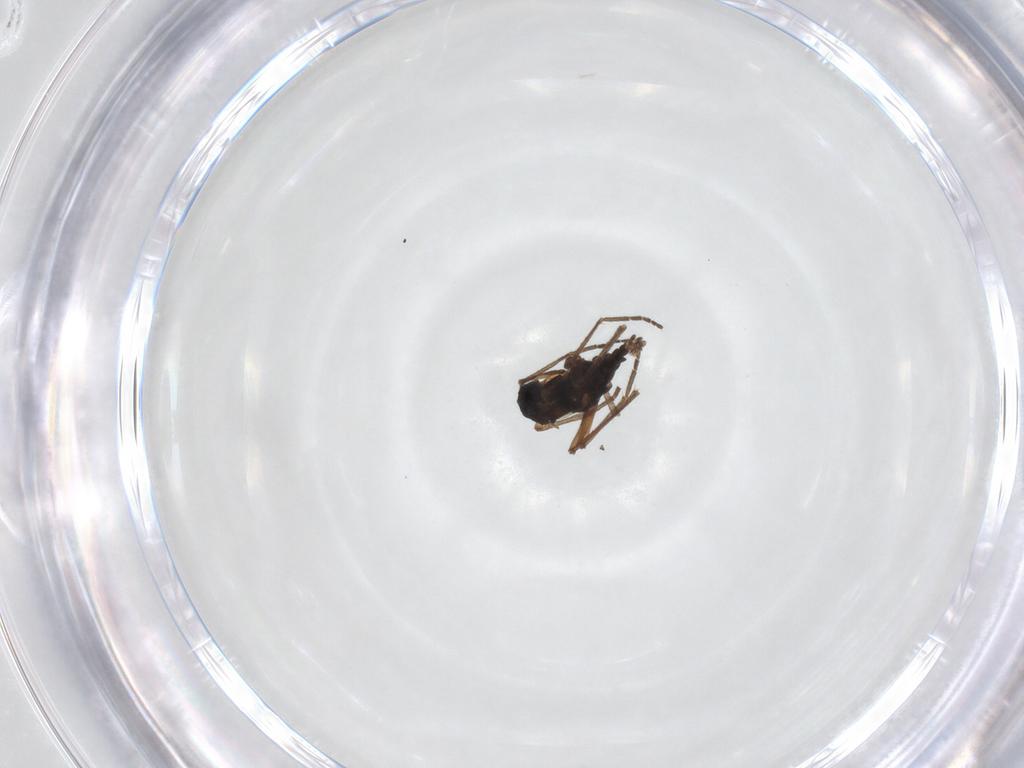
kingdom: Animalia
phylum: Arthropoda
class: Insecta
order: Diptera
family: Sciaridae
